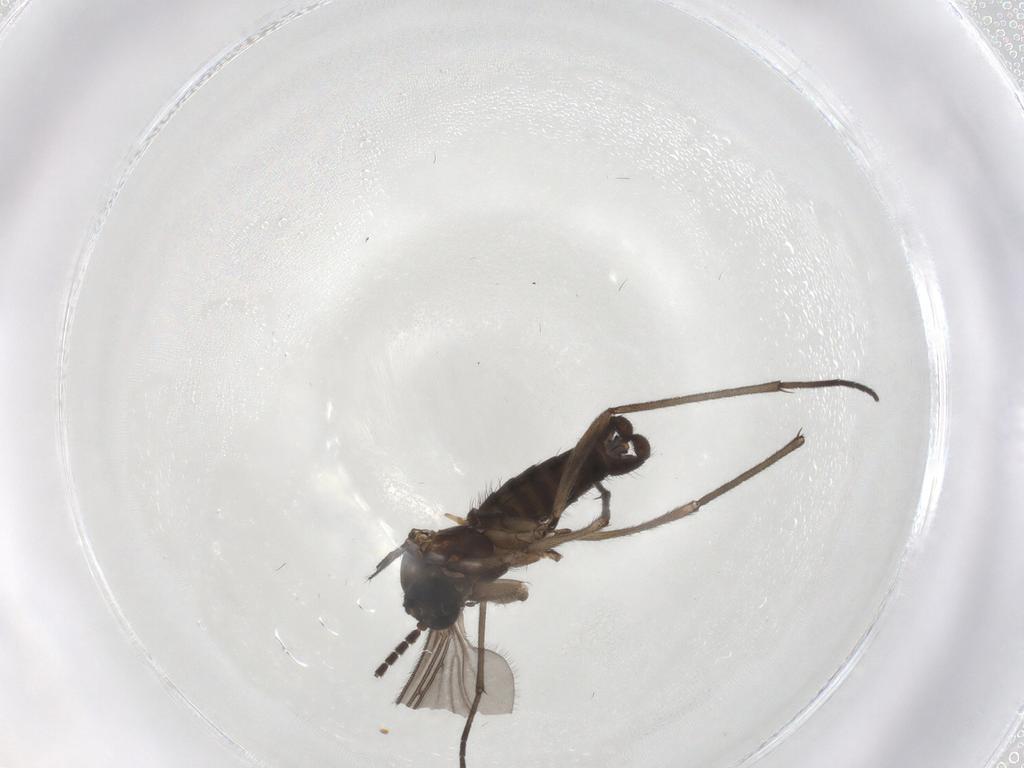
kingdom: Animalia
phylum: Arthropoda
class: Insecta
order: Diptera
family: Sciaridae
